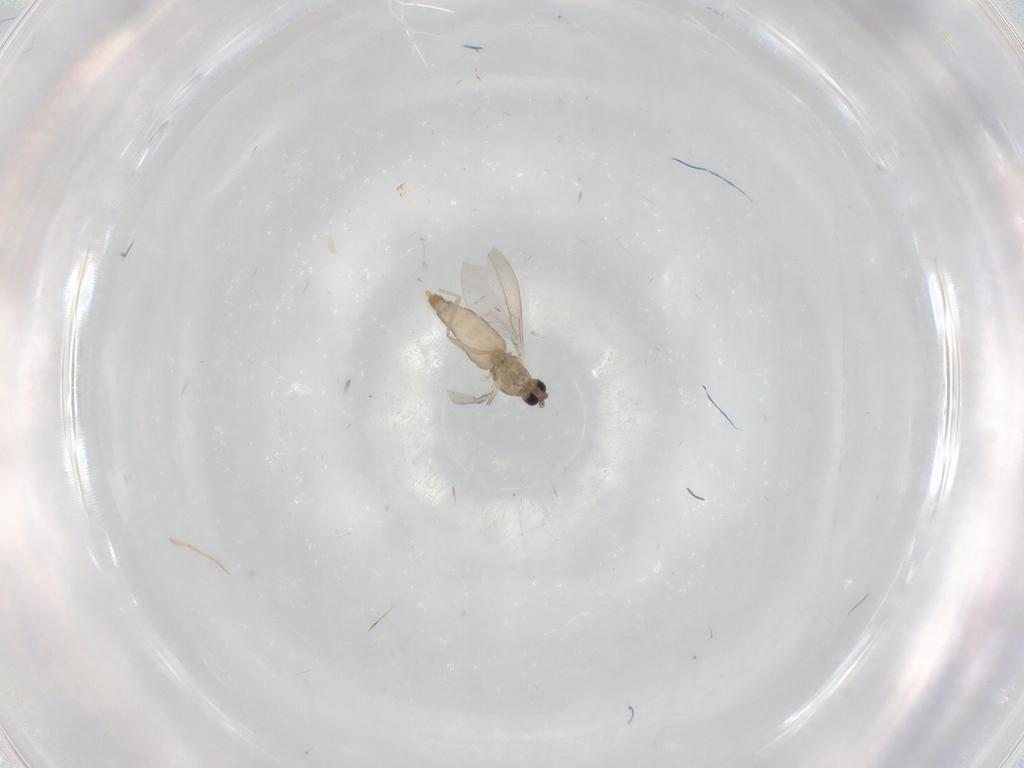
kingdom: Animalia
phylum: Arthropoda
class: Insecta
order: Diptera
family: Cecidomyiidae
